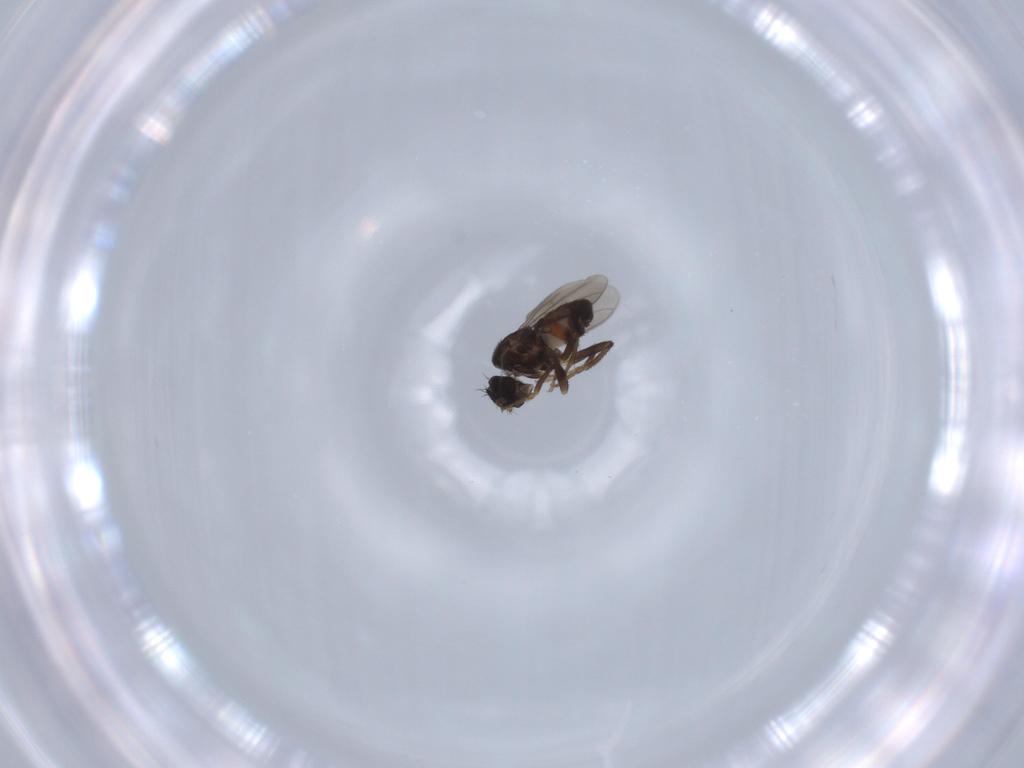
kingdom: Animalia
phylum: Arthropoda
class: Insecta
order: Diptera
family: Sphaeroceridae
